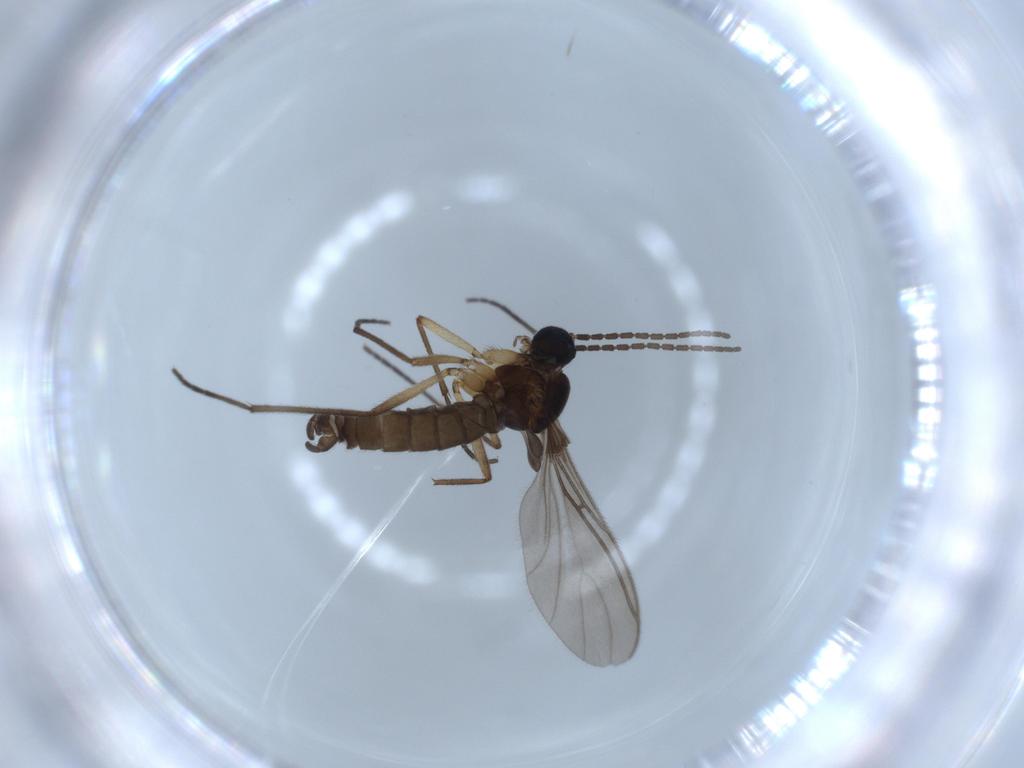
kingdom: Animalia
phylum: Arthropoda
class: Insecta
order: Diptera
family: Sciaridae
